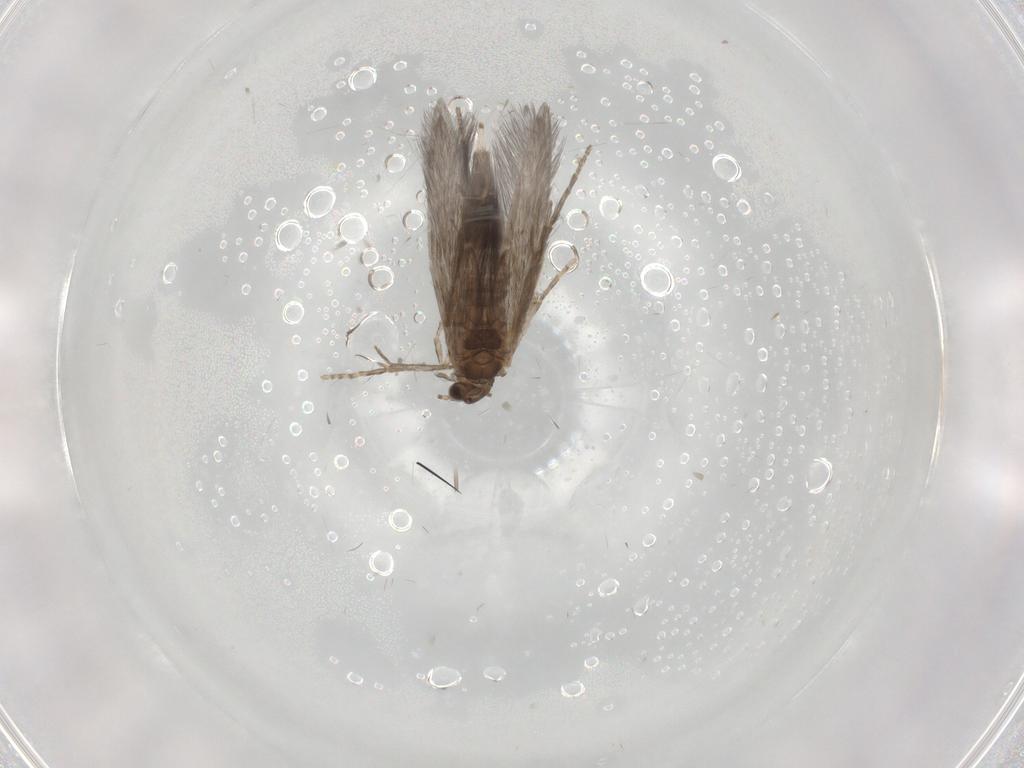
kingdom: Animalia
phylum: Arthropoda
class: Insecta
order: Trichoptera
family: Hydroptilidae
